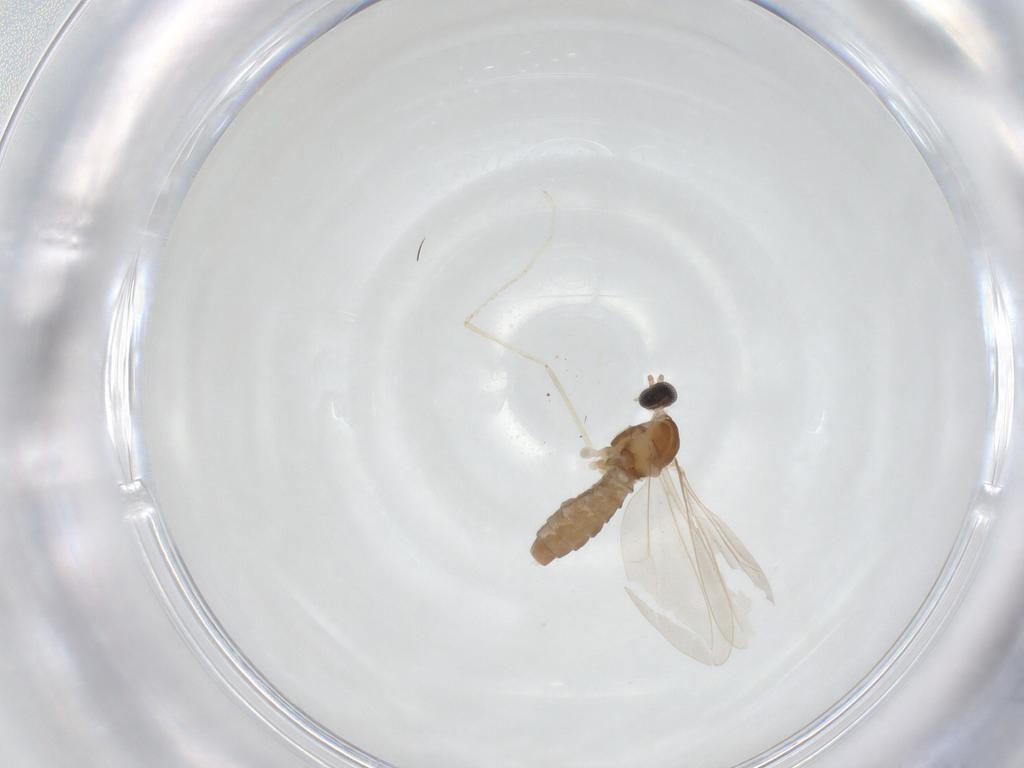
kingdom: Animalia
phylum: Arthropoda
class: Insecta
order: Diptera
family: Cecidomyiidae
